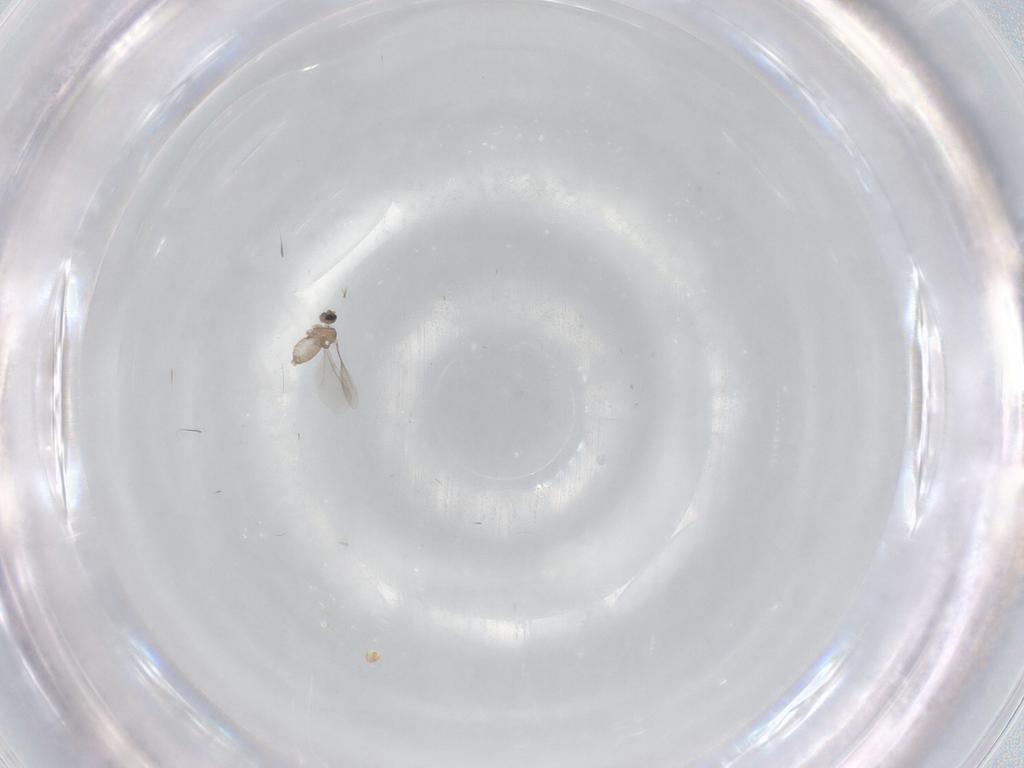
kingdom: Animalia
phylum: Arthropoda
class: Insecta
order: Diptera
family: Cecidomyiidae
